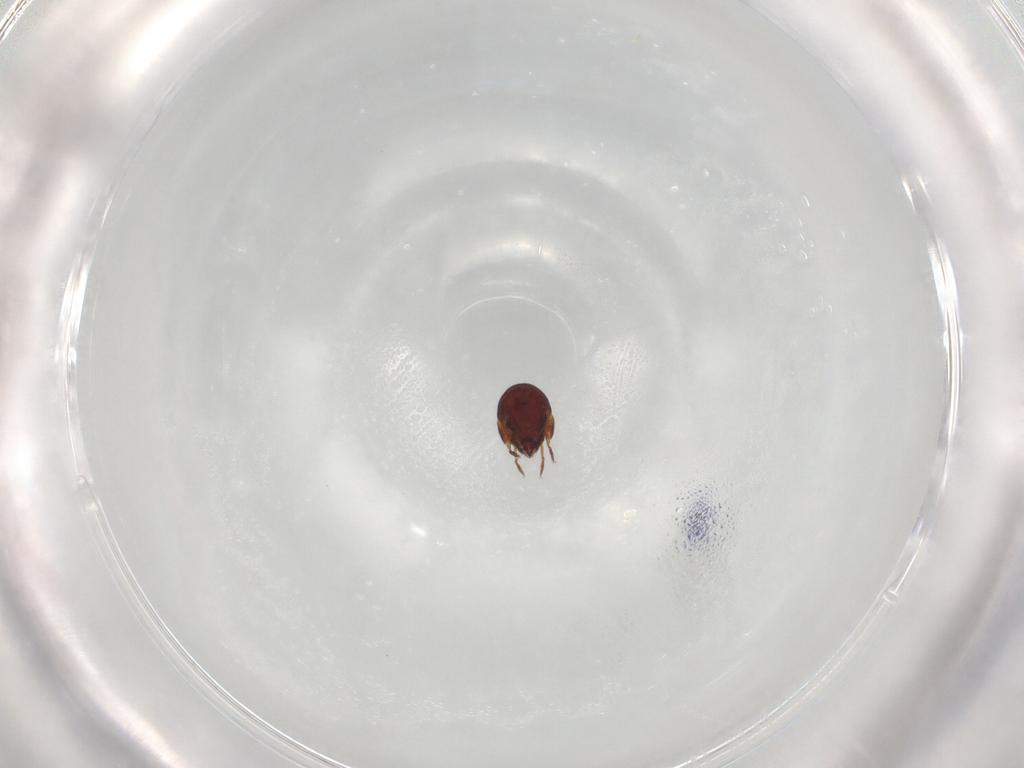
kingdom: Animalia
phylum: Arthropoda
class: Arachnida
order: Sarcoptiformes
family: Humerobatidae
